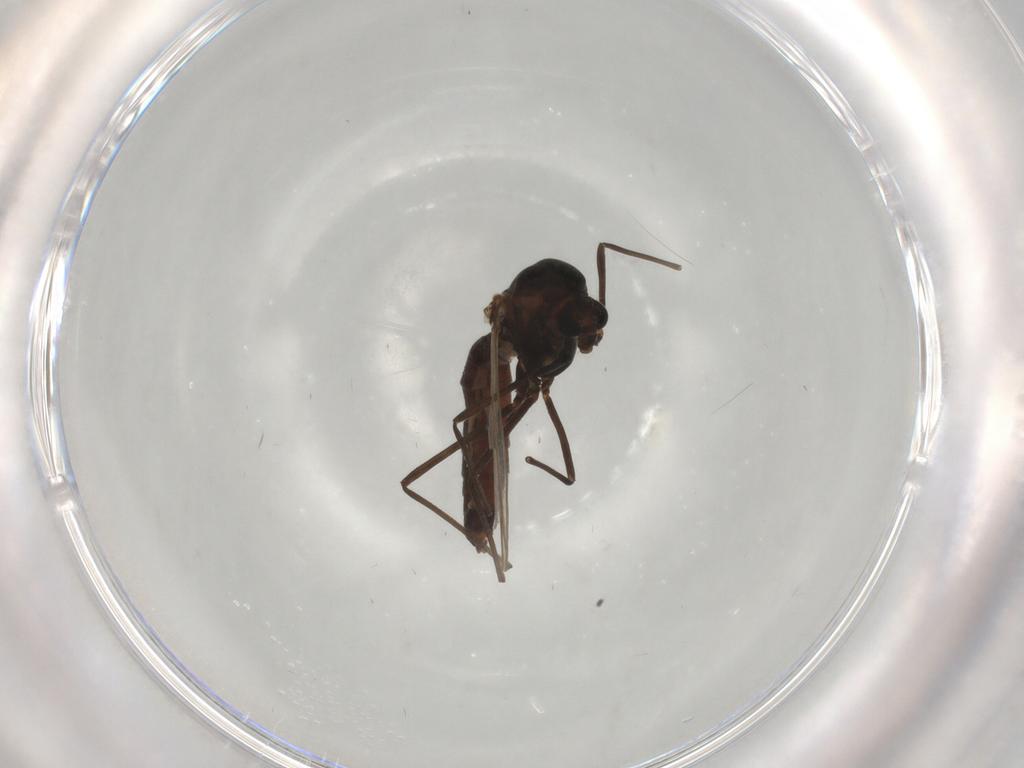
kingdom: Animalia
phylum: Arthropoda
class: Insecta
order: Diptera
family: Chironomidae
